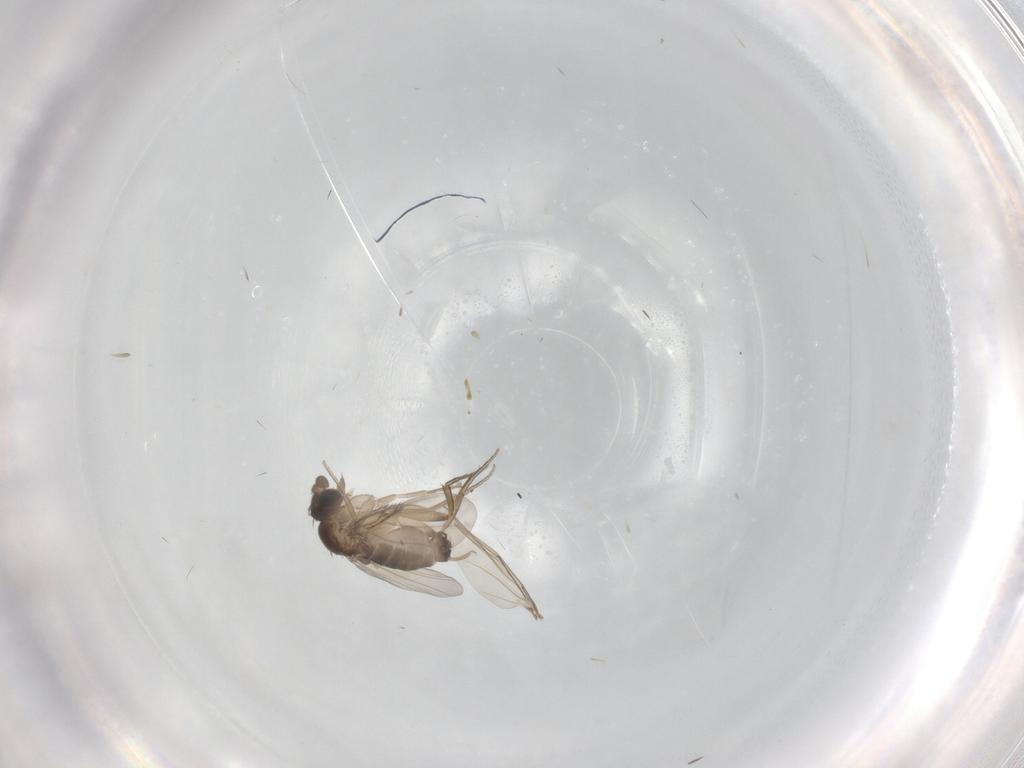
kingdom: Animalia
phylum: Arthropoda
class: Insecta
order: Diptera
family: Phoridae
